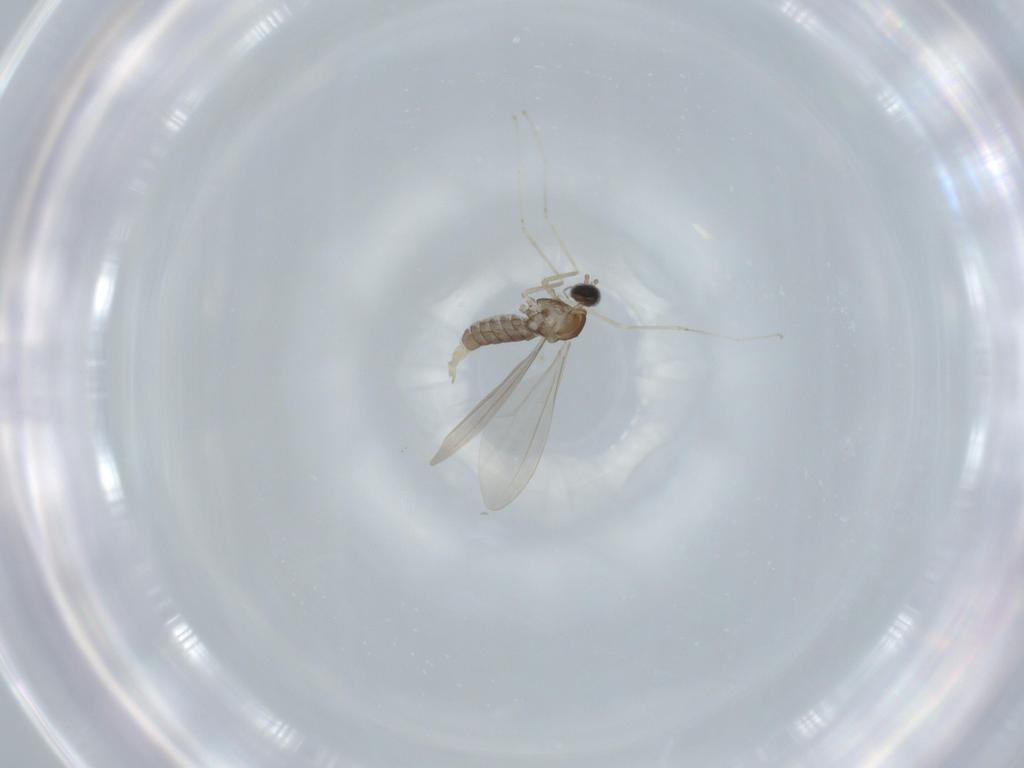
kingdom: Animalia
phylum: Arthropoda
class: Insecta
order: Diptera
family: Cecidomyiidae
